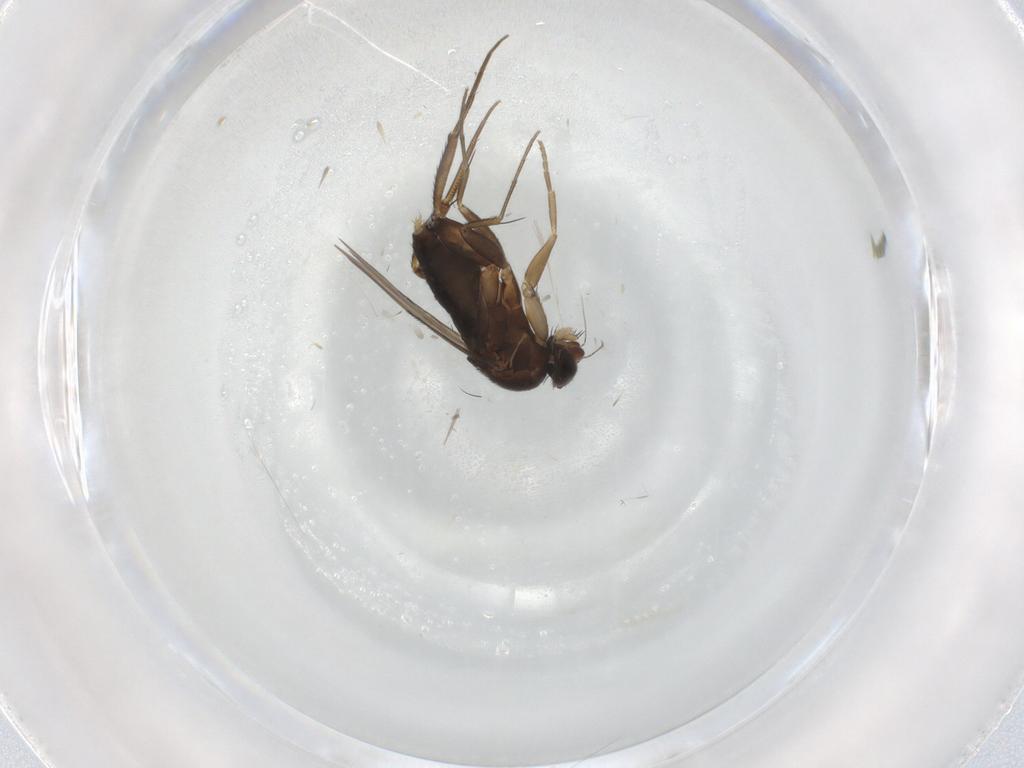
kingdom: Animalia
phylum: Arthropoda
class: Insecta
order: Diptera
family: Phoridae
